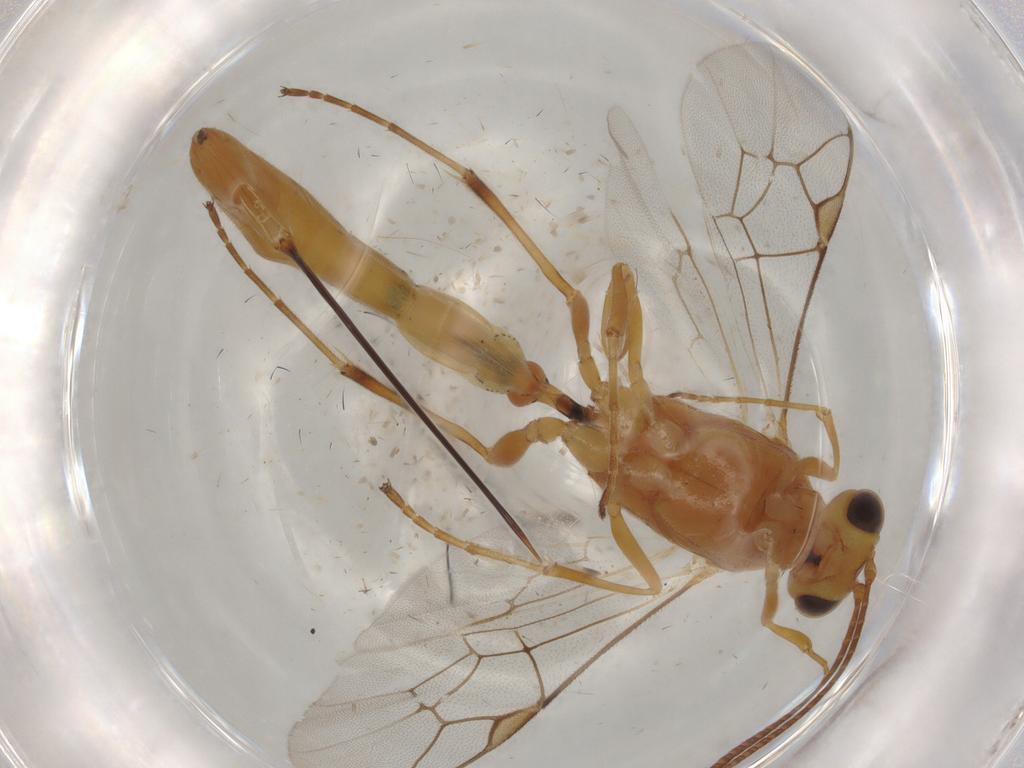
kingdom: Animalia
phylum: Arthropoda
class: Insecta
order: Hymenoptera
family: Ichneumonidae
